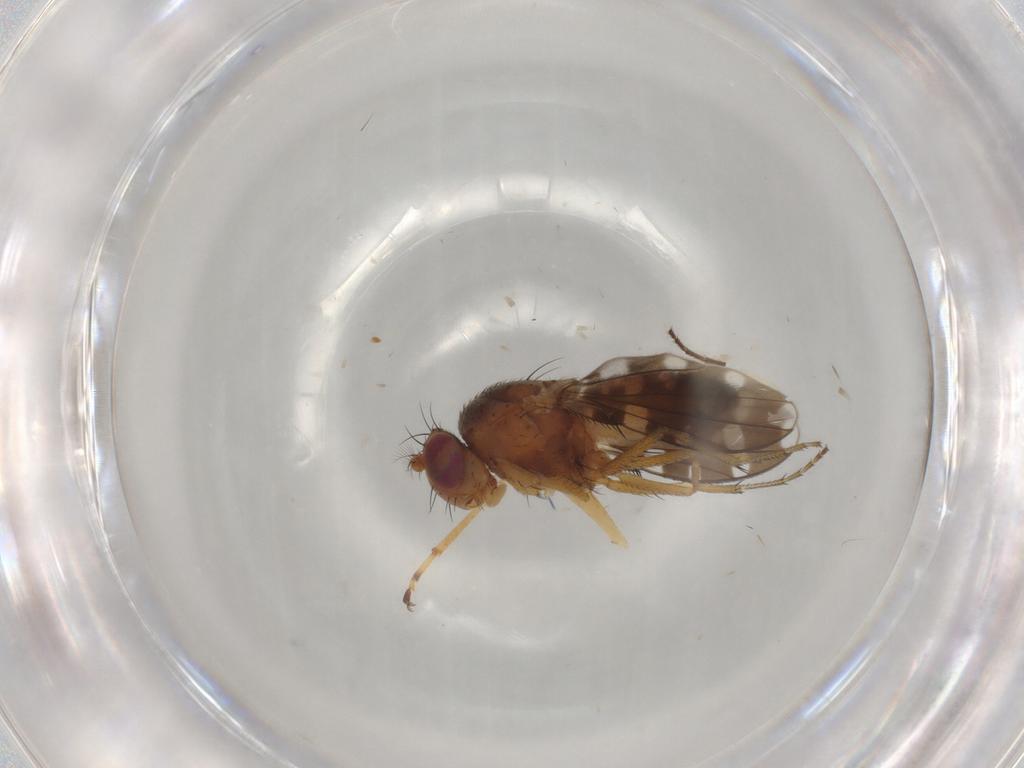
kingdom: Animalia
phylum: Arthropoda
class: Insecta
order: Diptera
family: Ephydridae
